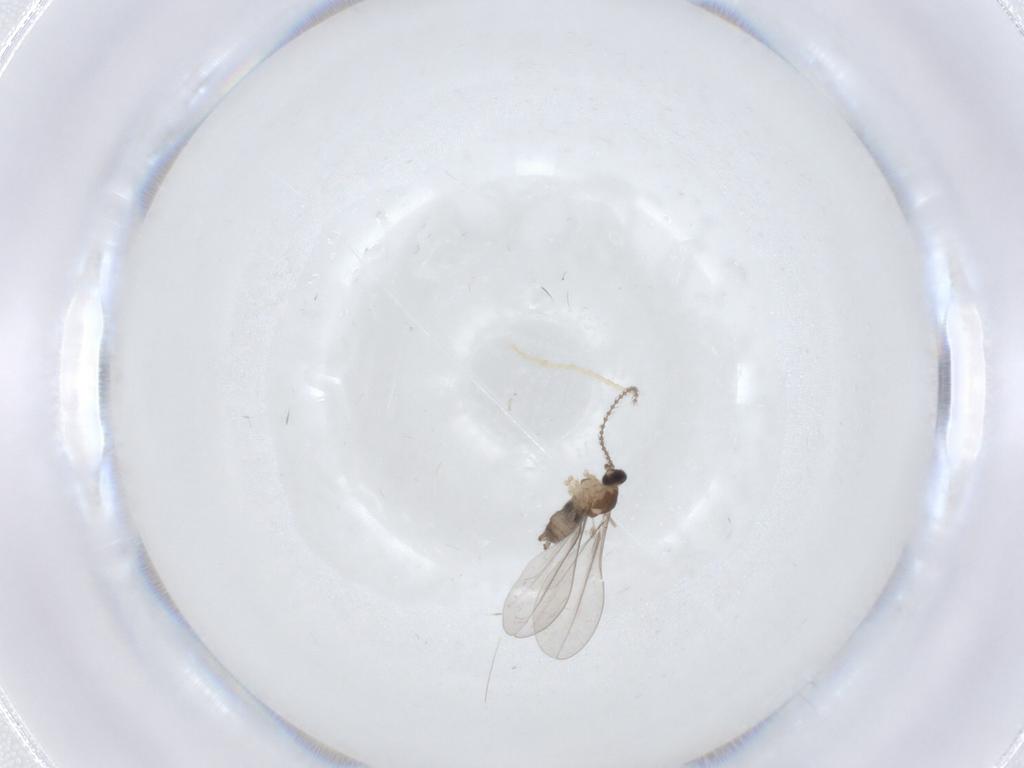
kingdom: Animalia
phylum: Arthropoda
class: Insecta
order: Diptera
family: Cecidomyiidae
